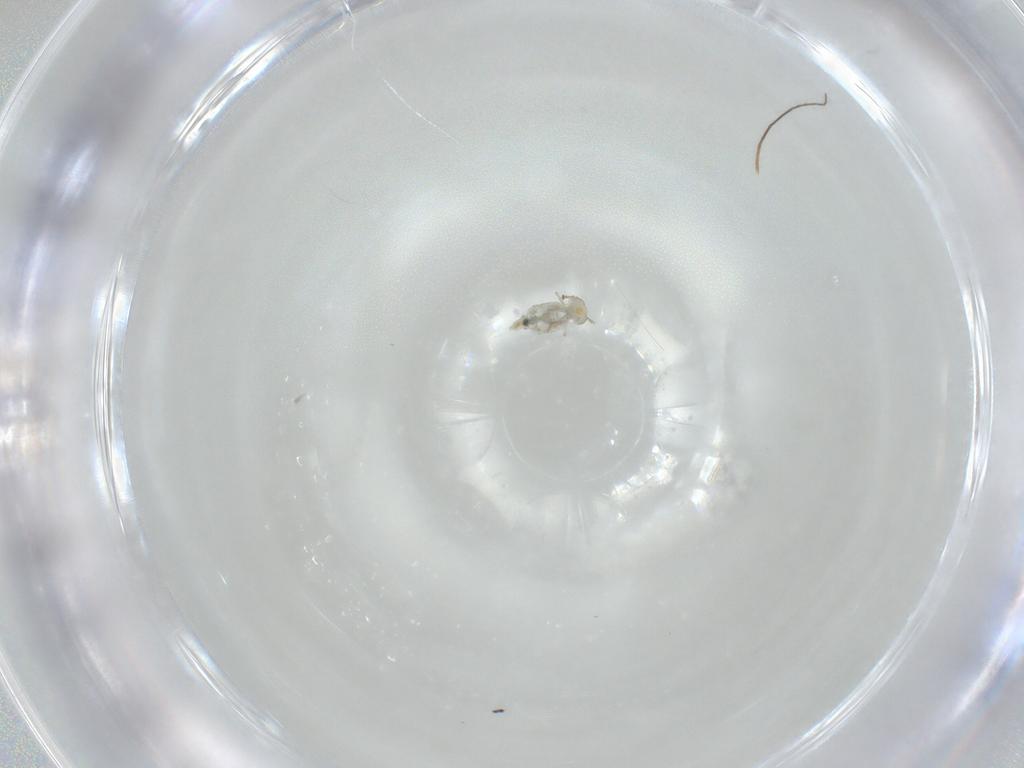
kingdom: Animalia
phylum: Arthropoda
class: Collembola
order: Symphypleona
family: Bourletiellidae
